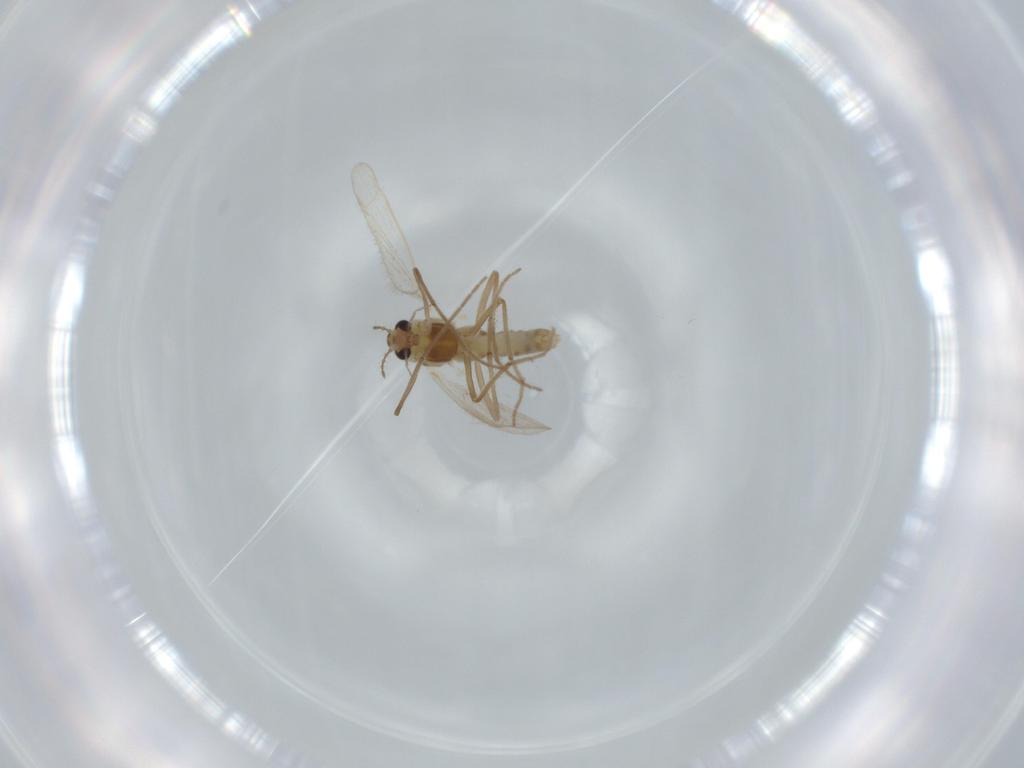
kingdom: Animalia
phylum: Arthropoda
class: Insecta
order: Diptera
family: Chironomidae
